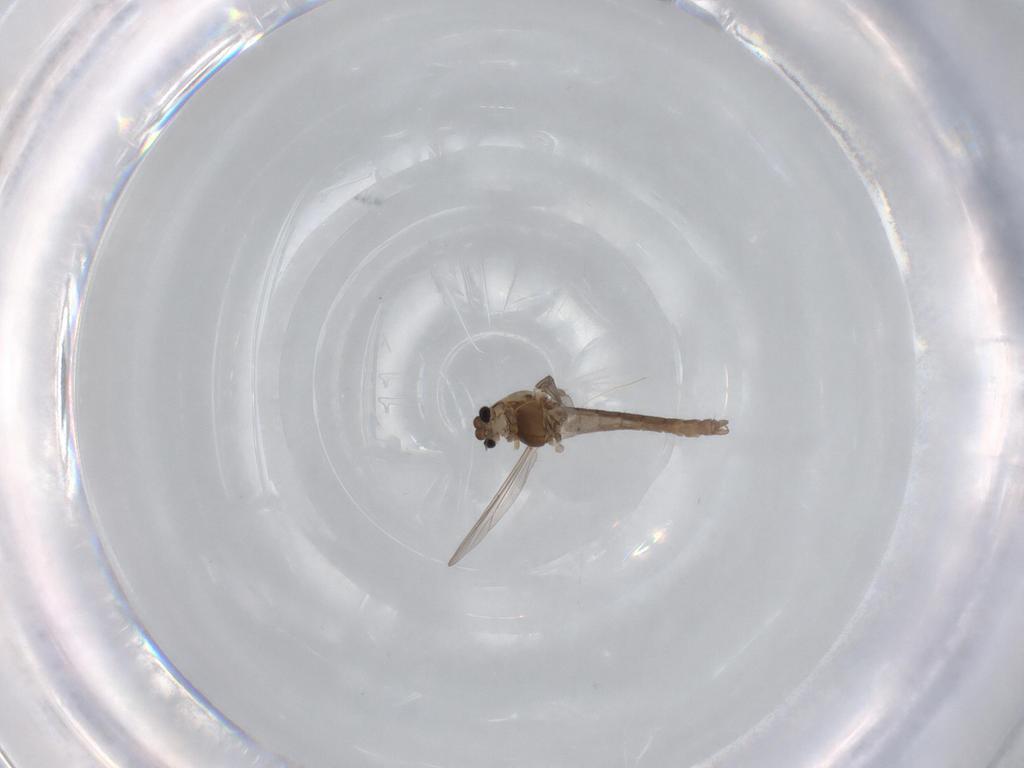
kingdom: Animalia
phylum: Arthropoda
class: Insecta
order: Diptera
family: Chironomidae
